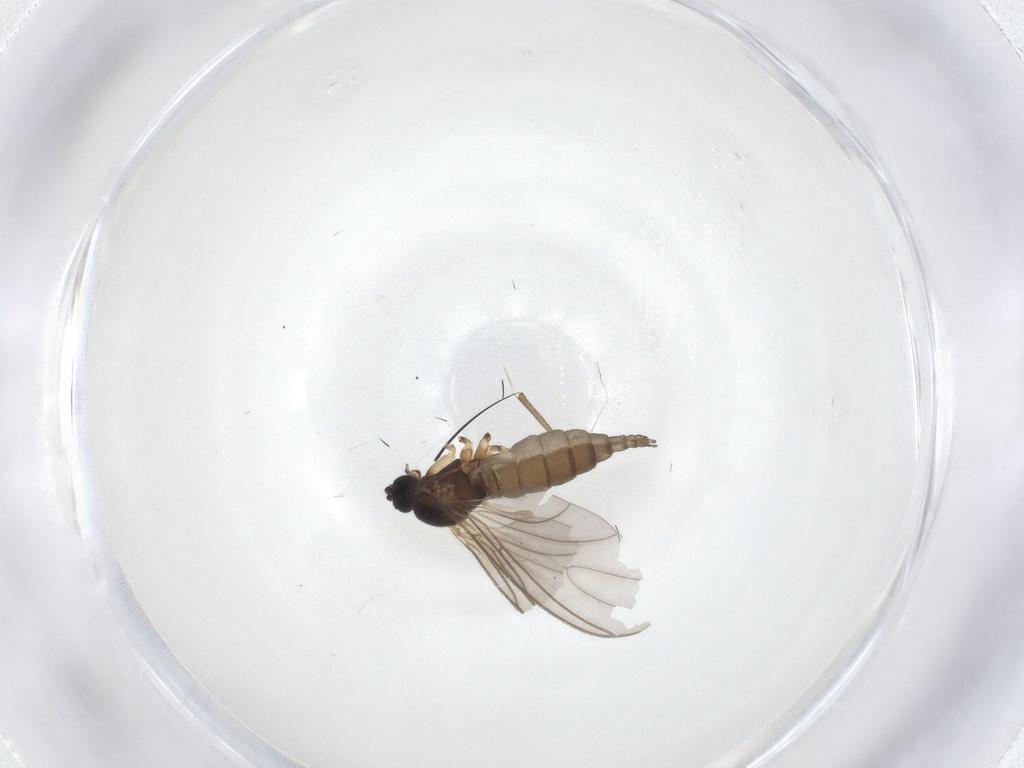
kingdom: Animalia
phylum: Arthropoda
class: Insecta
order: Diptera
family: Sciaridae
